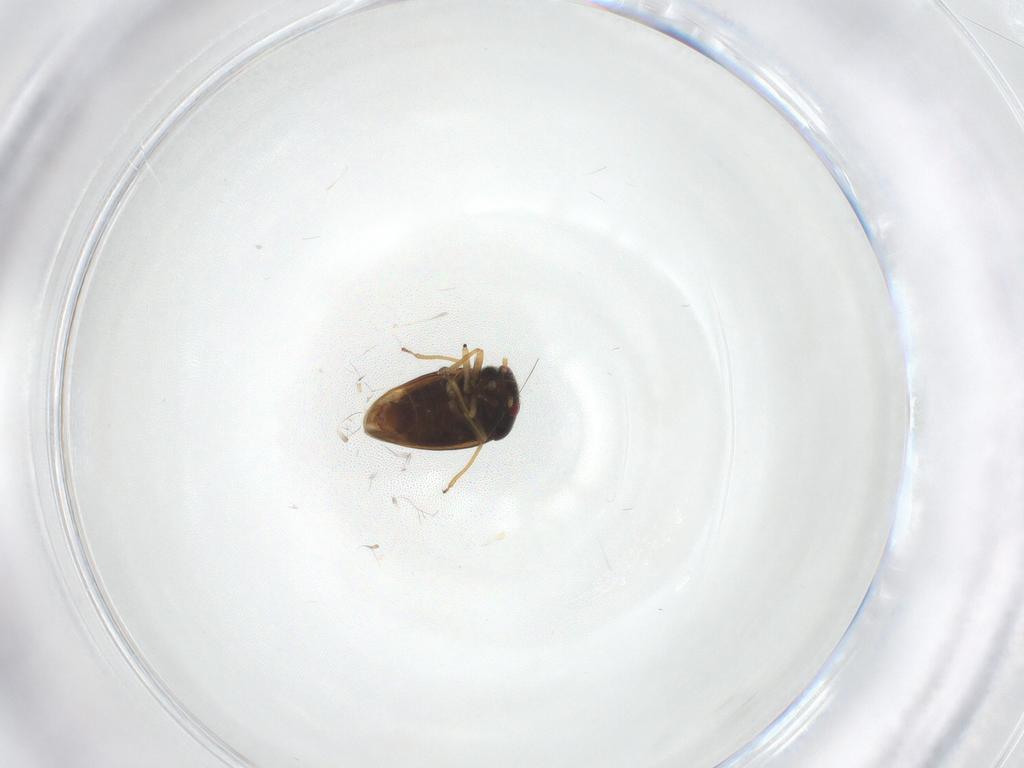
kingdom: Animalia
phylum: Arthropoda
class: Insecta
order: Hemiptera
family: Schizopteridae
